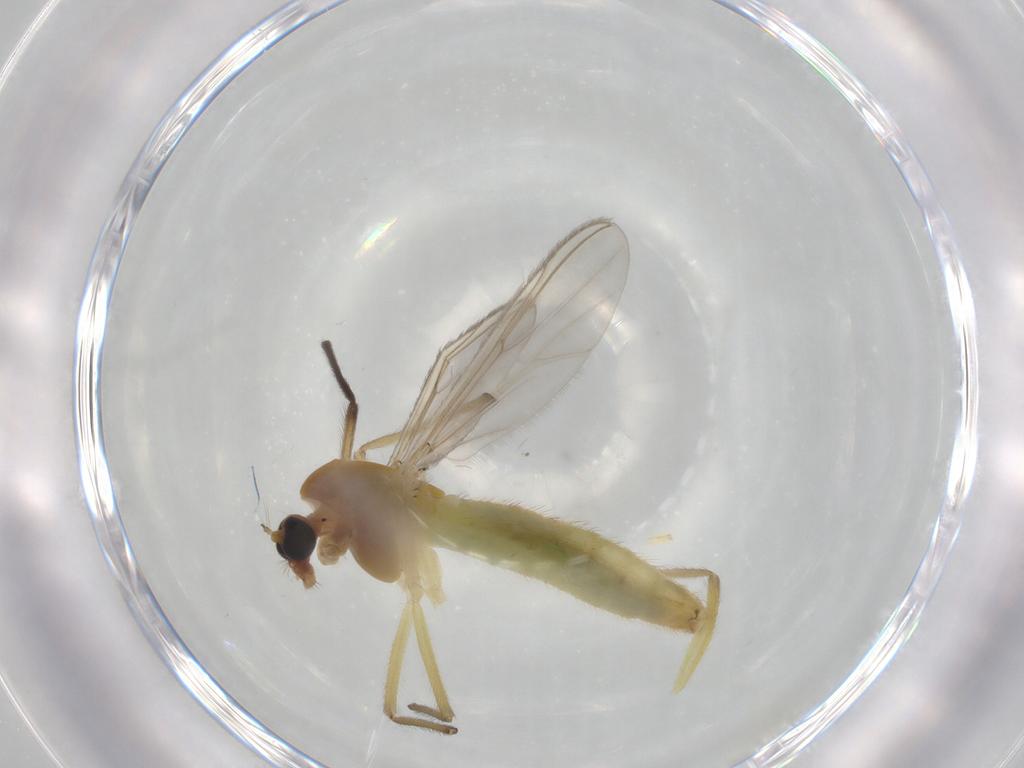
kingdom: Animalia
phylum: Arthropoda
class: Insecta
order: Diptera
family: Chironomidae
